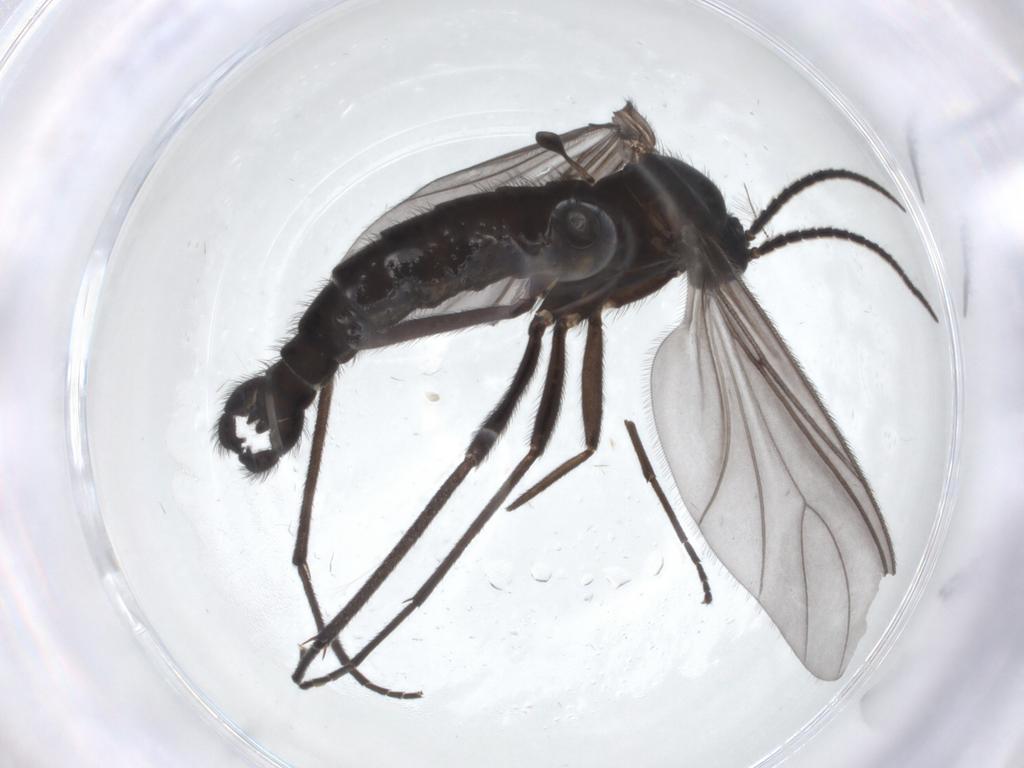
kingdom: Animalia
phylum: Arthropoda
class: Insecta
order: Diptera
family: Chironomidae
